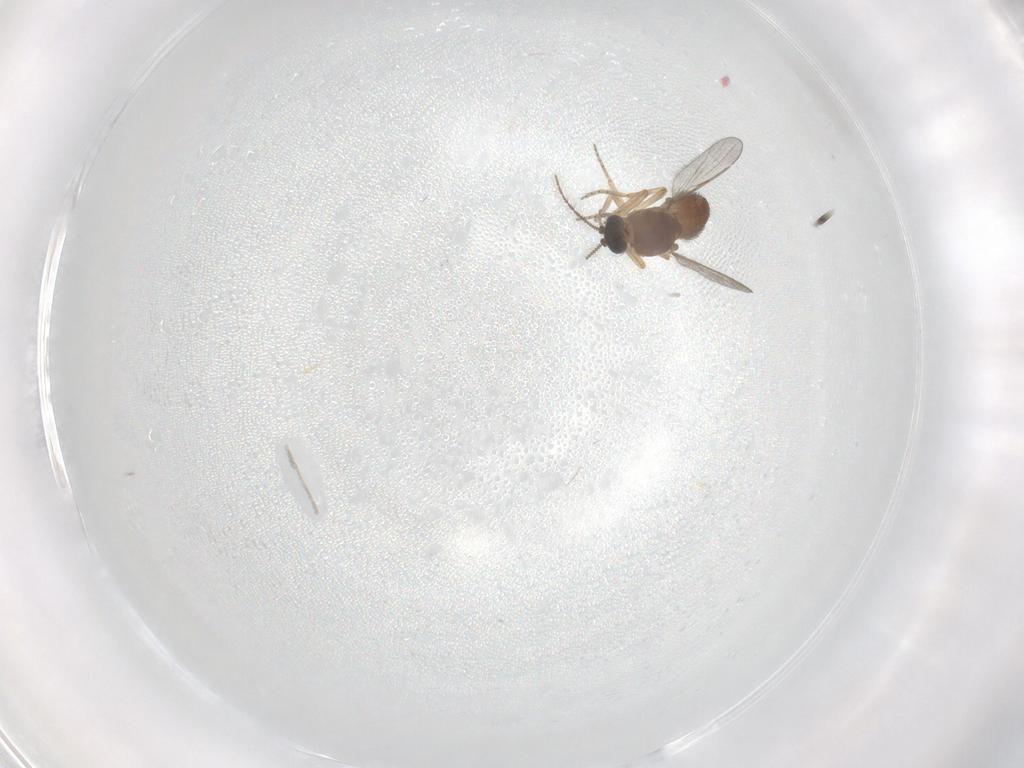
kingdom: Animalia
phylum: Arthropoda
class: Insecta
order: Diptera
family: Ceratopogonidae
